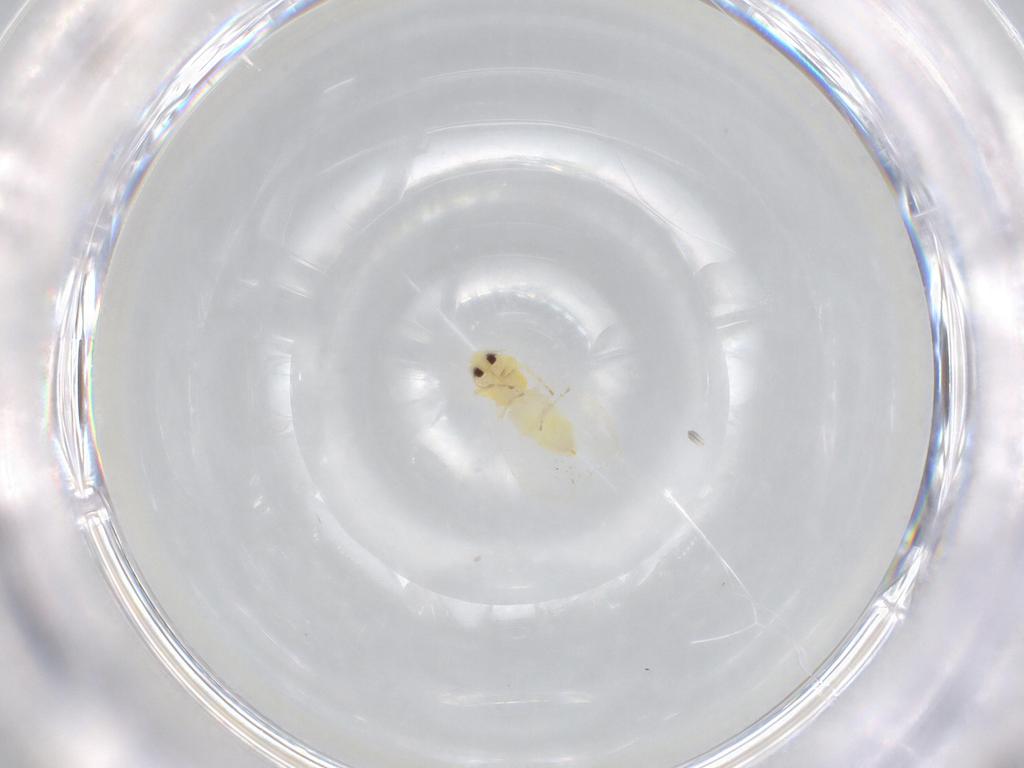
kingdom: Animalia
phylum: Arthropoda
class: Insecta
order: Hemiptera
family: Aleyrodidae
